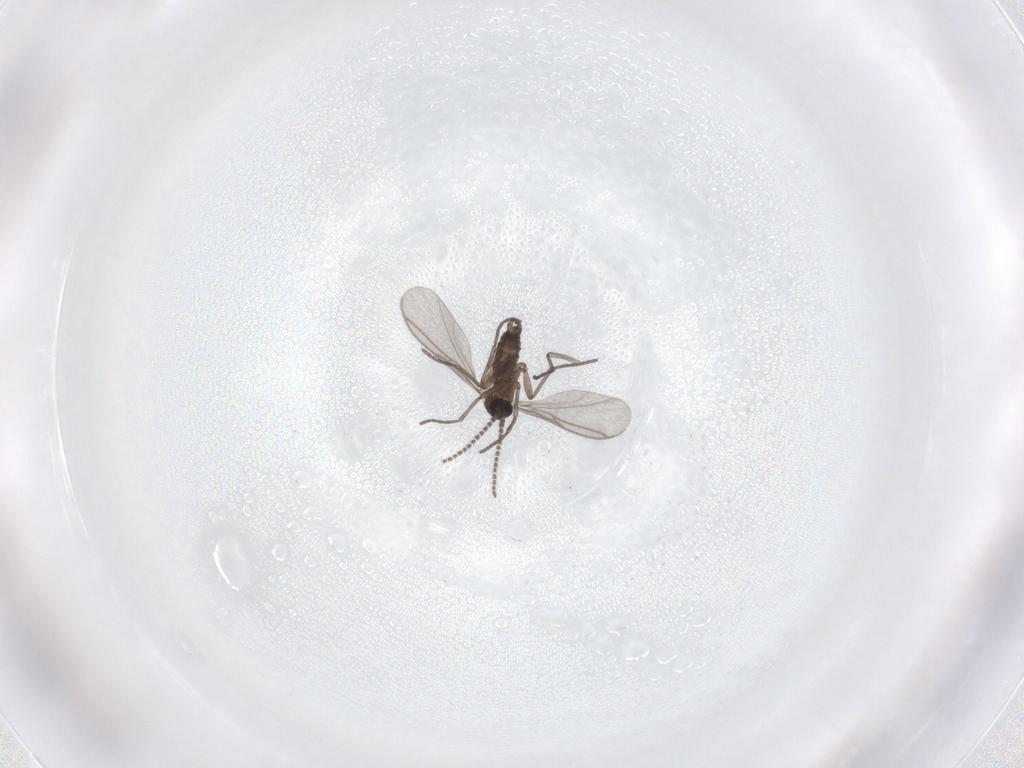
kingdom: Animalia
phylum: Arthropoda
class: Insecta
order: Diptera
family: Sciaridae
